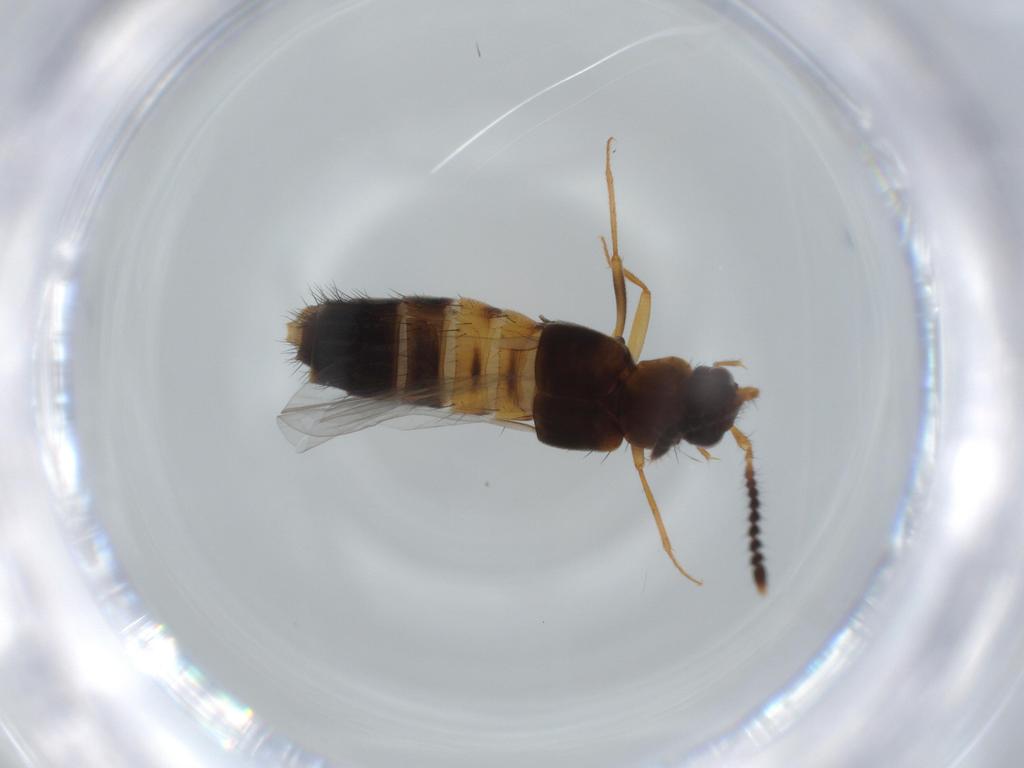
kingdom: Animalia
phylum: Arthropoda
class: Insecta
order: Coleoptera
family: Staphylinidae
